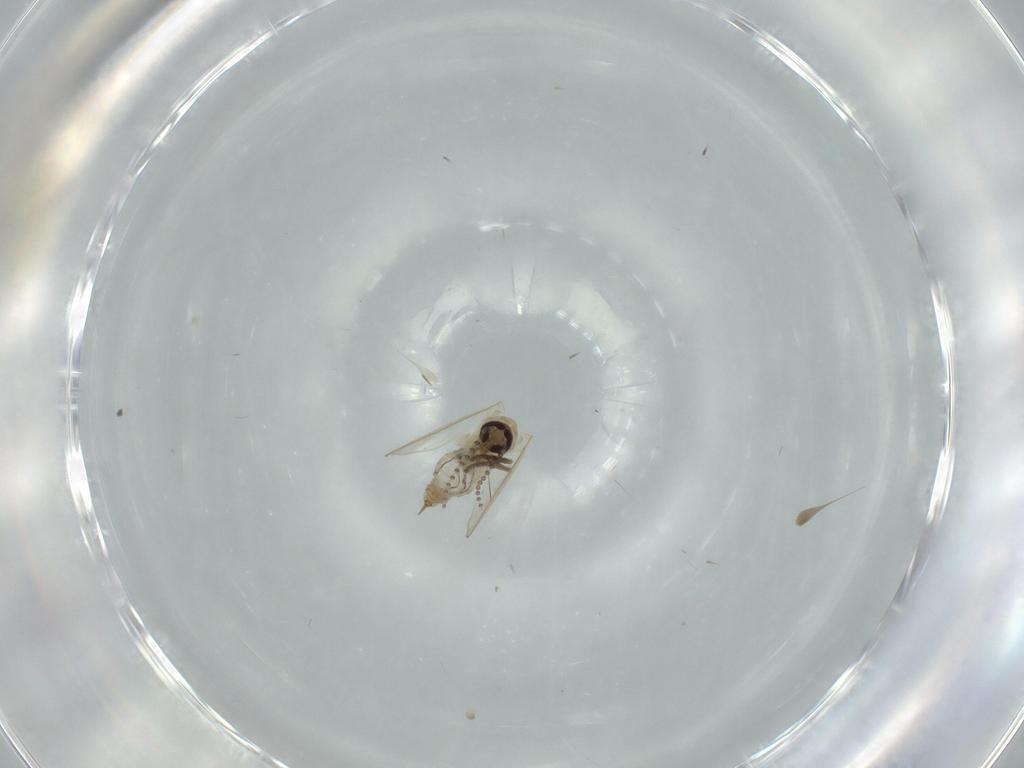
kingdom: Animalia
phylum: Arthropoda
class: Insecta
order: Diptera
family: Psychodidae
